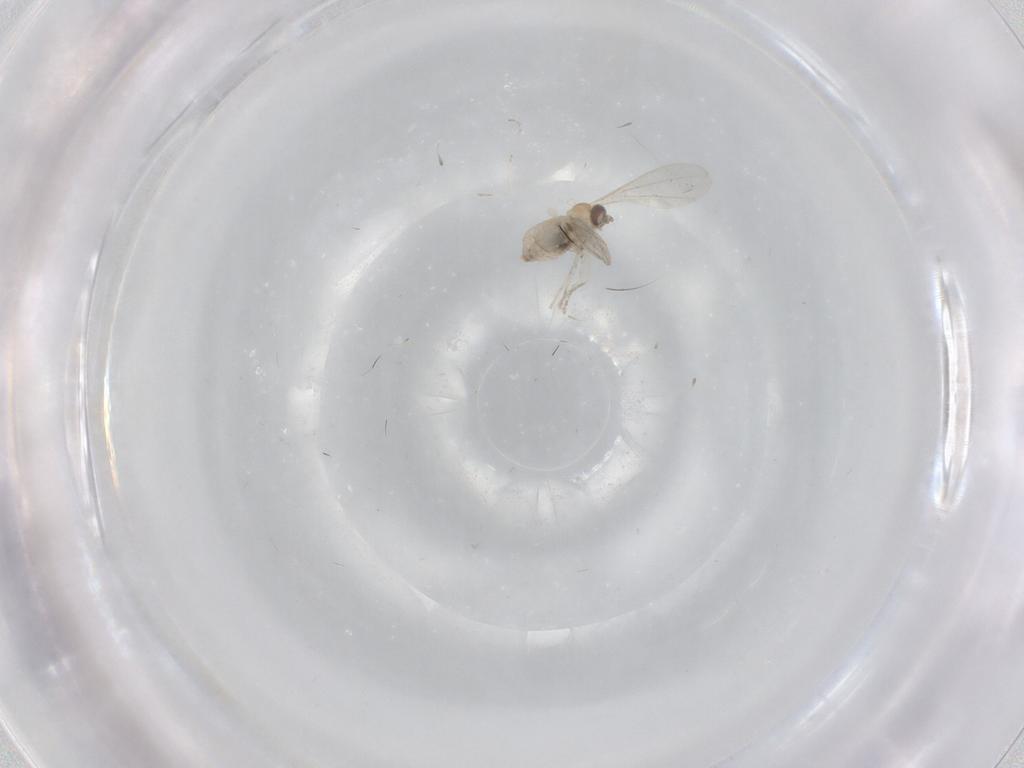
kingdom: Animalia
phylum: Arthropoda
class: Insecta
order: Diptera
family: Cecidomyiidae
